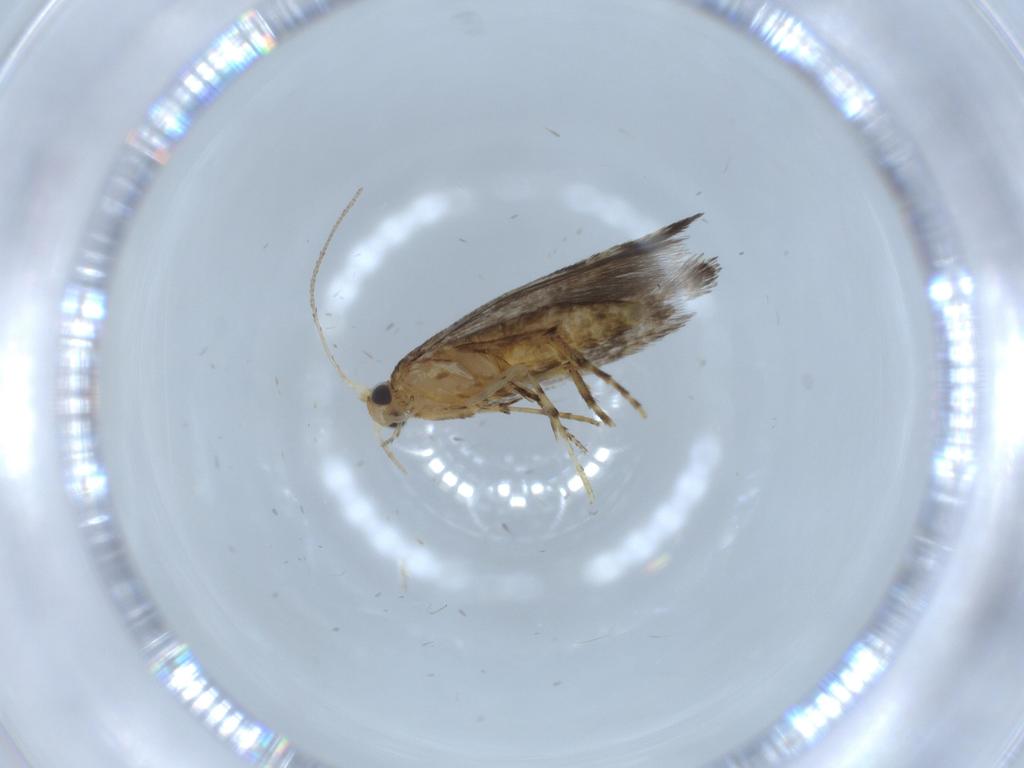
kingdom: Animalia
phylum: Arthropoda
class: Insecta
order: Lepidoptera
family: Argyresthiidae
